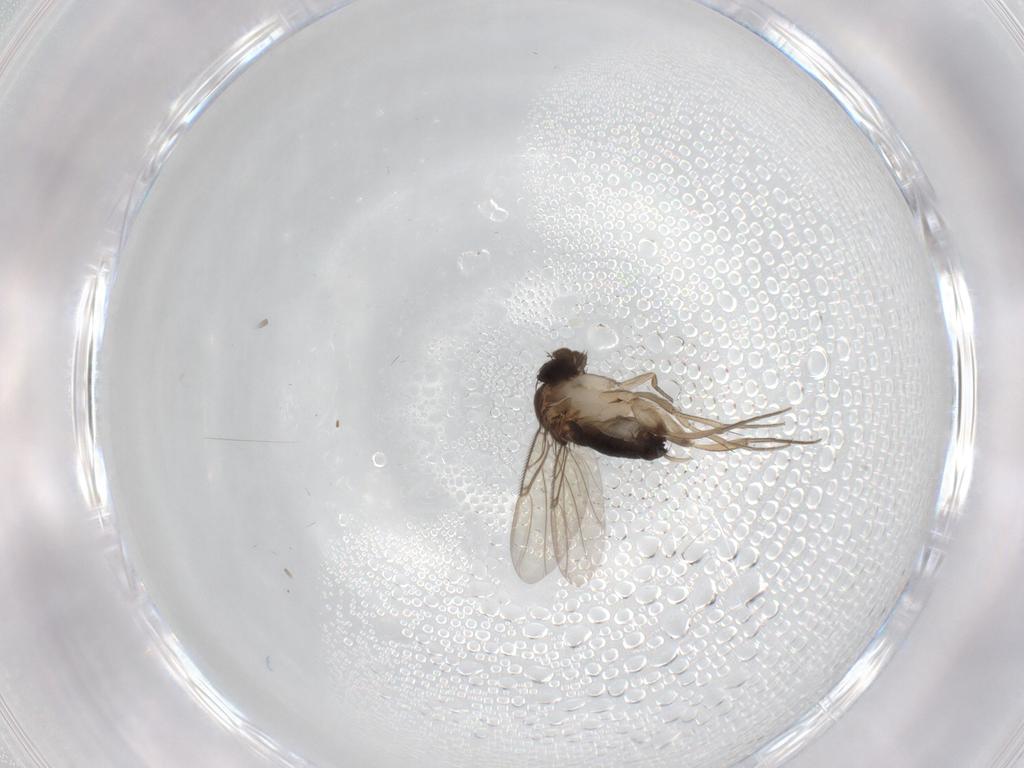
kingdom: Animalia
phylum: Arthropoda
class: Insecta
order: Diptera
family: Phoridae
